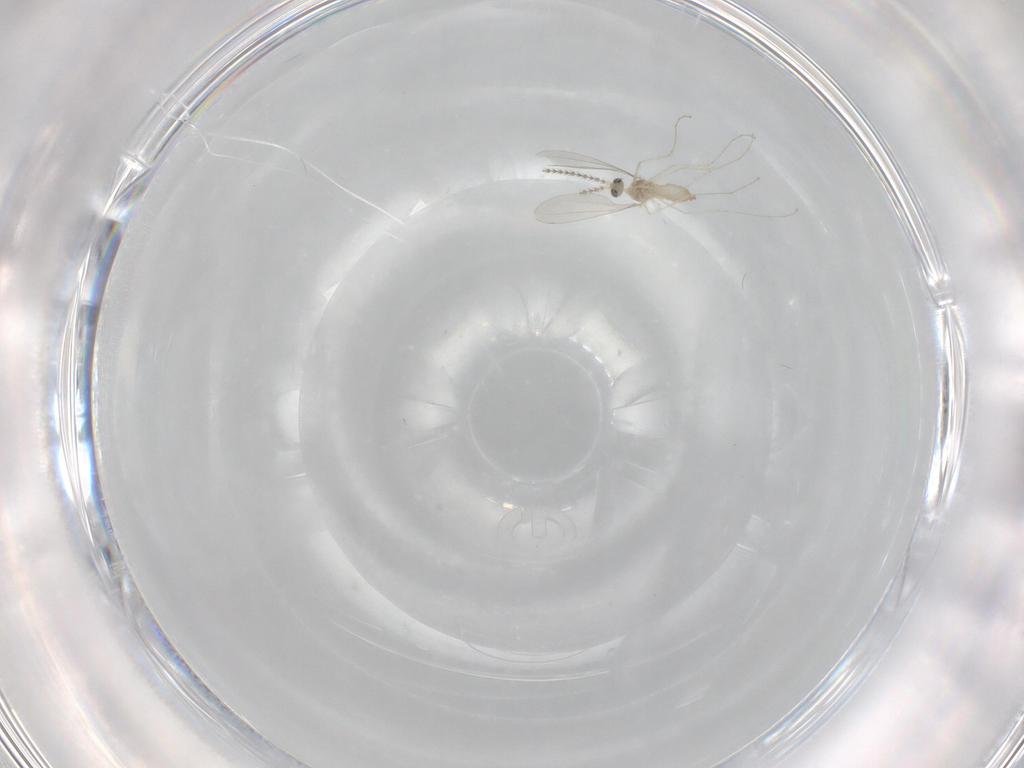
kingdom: Animalia
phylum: Arthropoda
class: Insecta
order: Diptera
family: Cecidomyiidae
